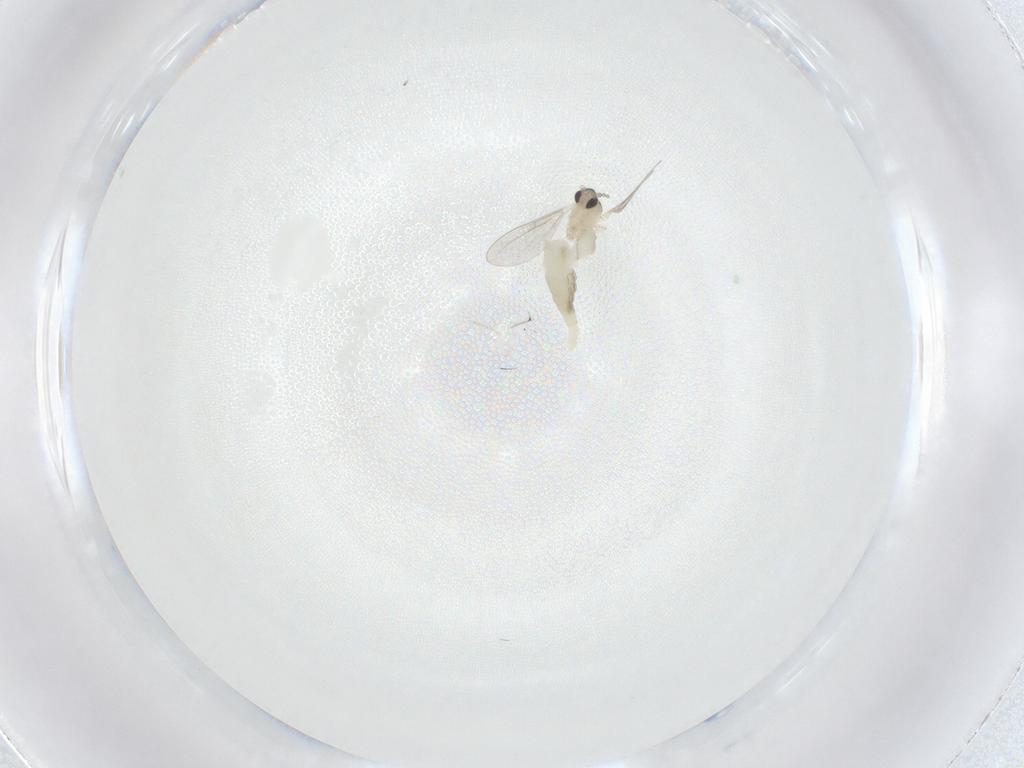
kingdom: Animalia
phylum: Arthropoda
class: Insecta
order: Diptera
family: Cecidomyiidae
